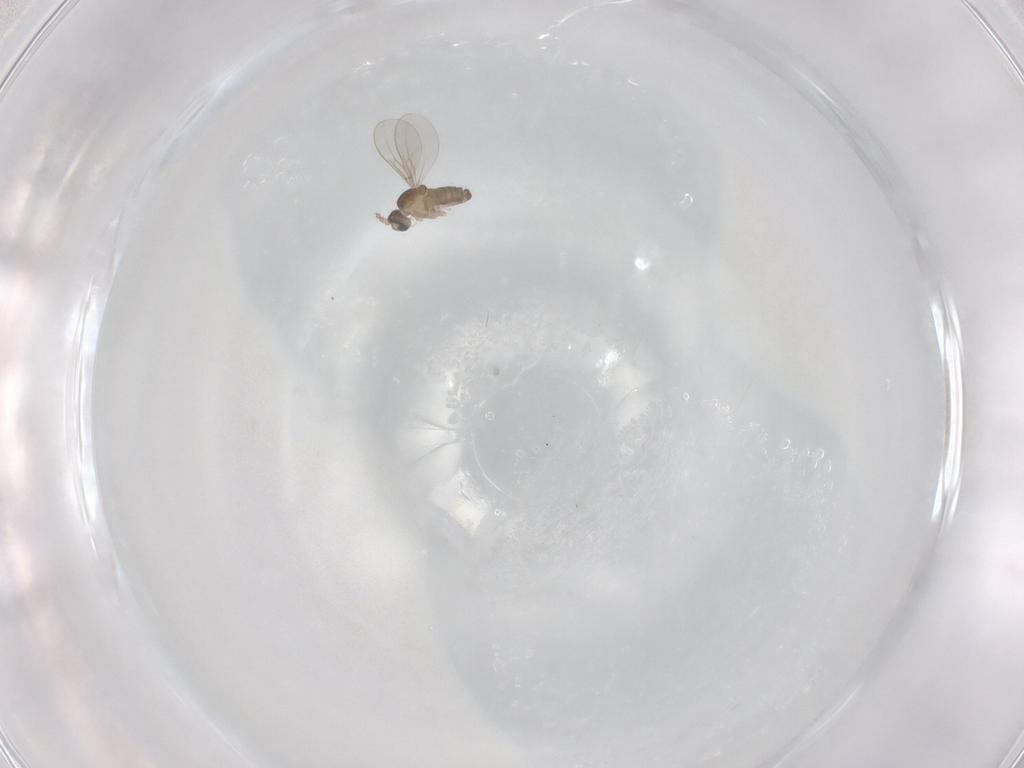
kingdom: Animalia
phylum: Arthropoda
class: Insecta
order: Diptera
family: Cecidomyiidae
